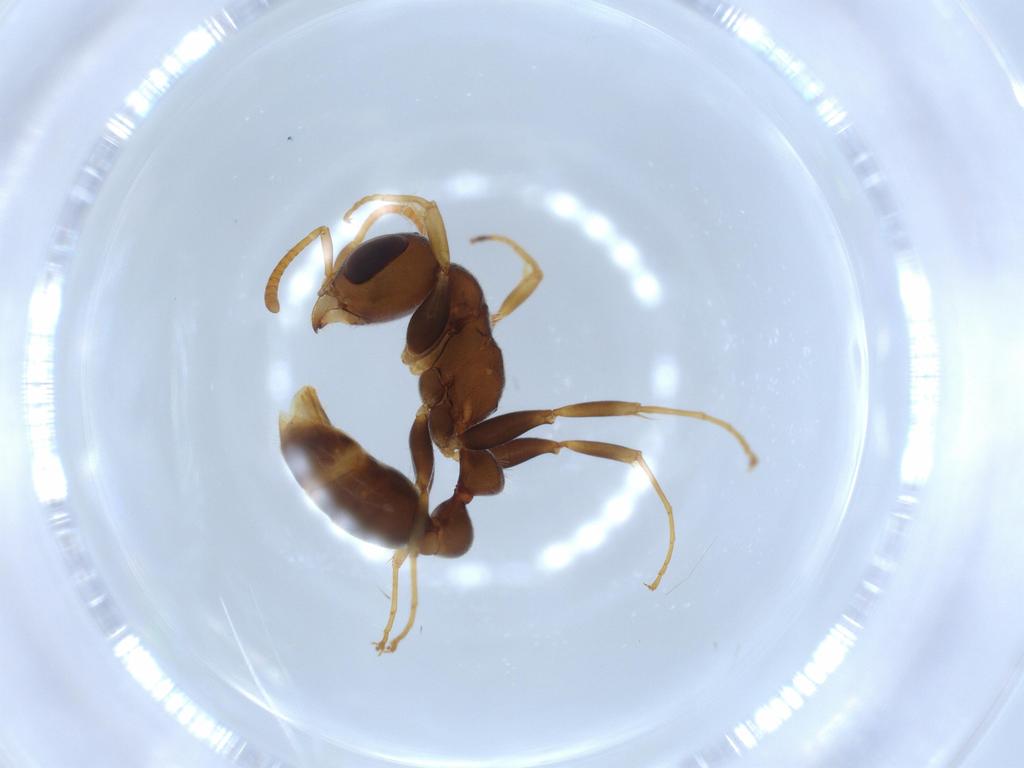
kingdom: Animalia
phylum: Arthropoda
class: Insecta
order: Hymenoptera
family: Formicidae
